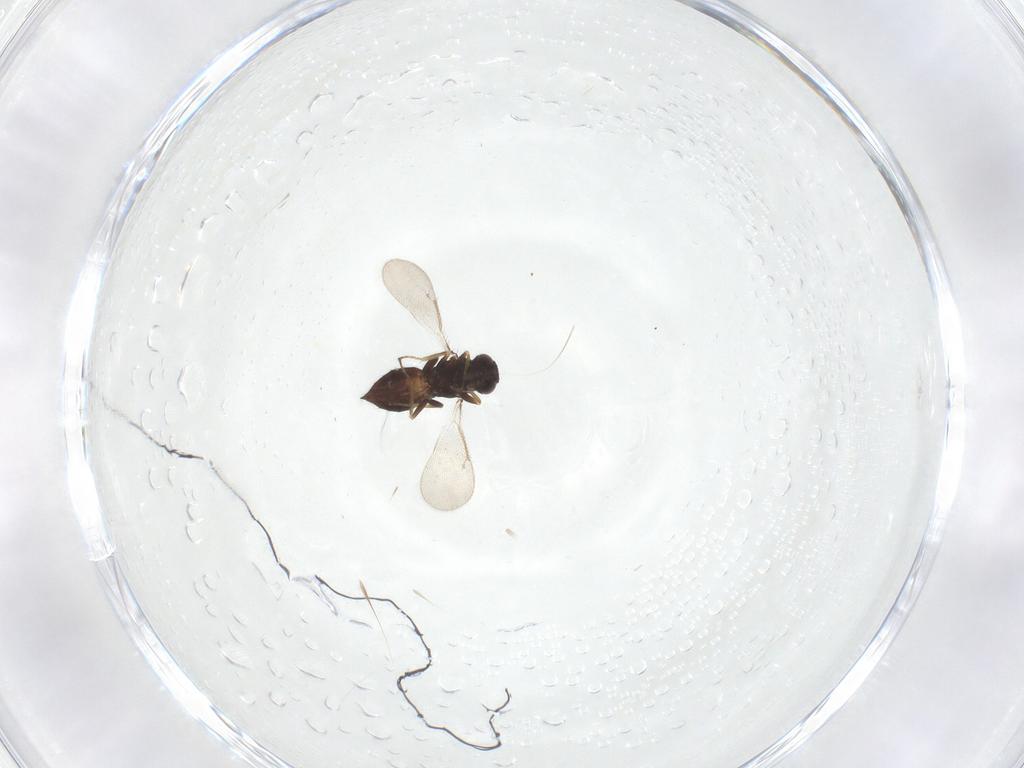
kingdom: Animalia
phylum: Arthropoda
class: Insecta
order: Hymenoptera
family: Eulophidae
